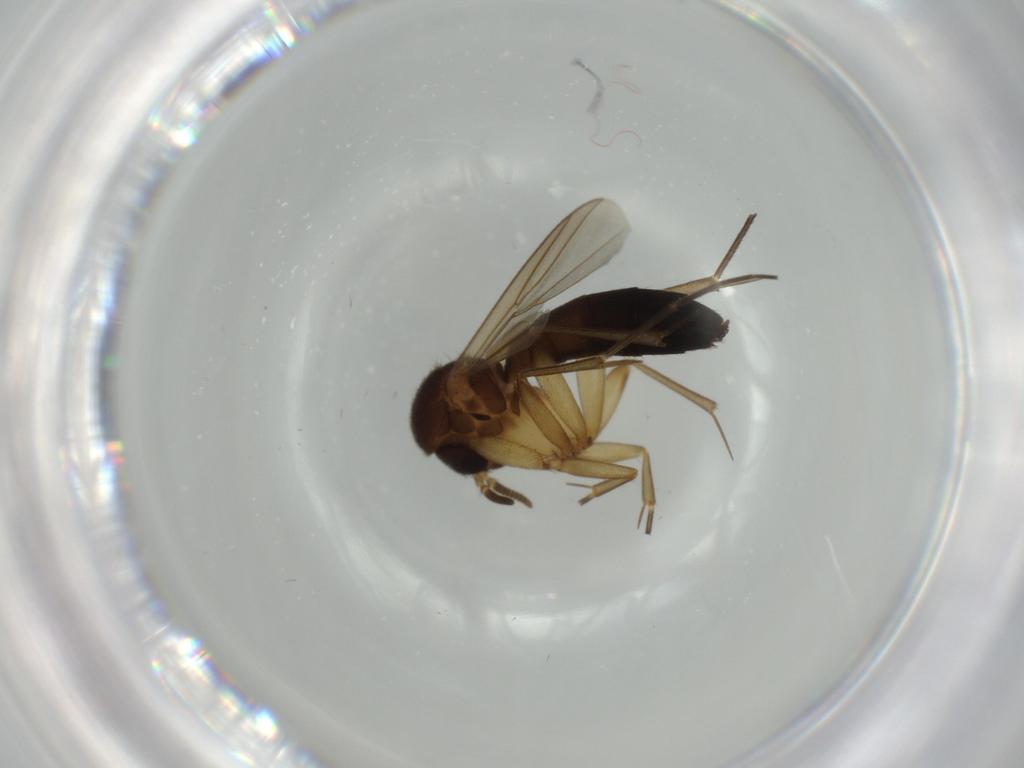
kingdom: Animalia
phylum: Arthropoda
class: Insecta
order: Diptera
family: Mycetophilidae
